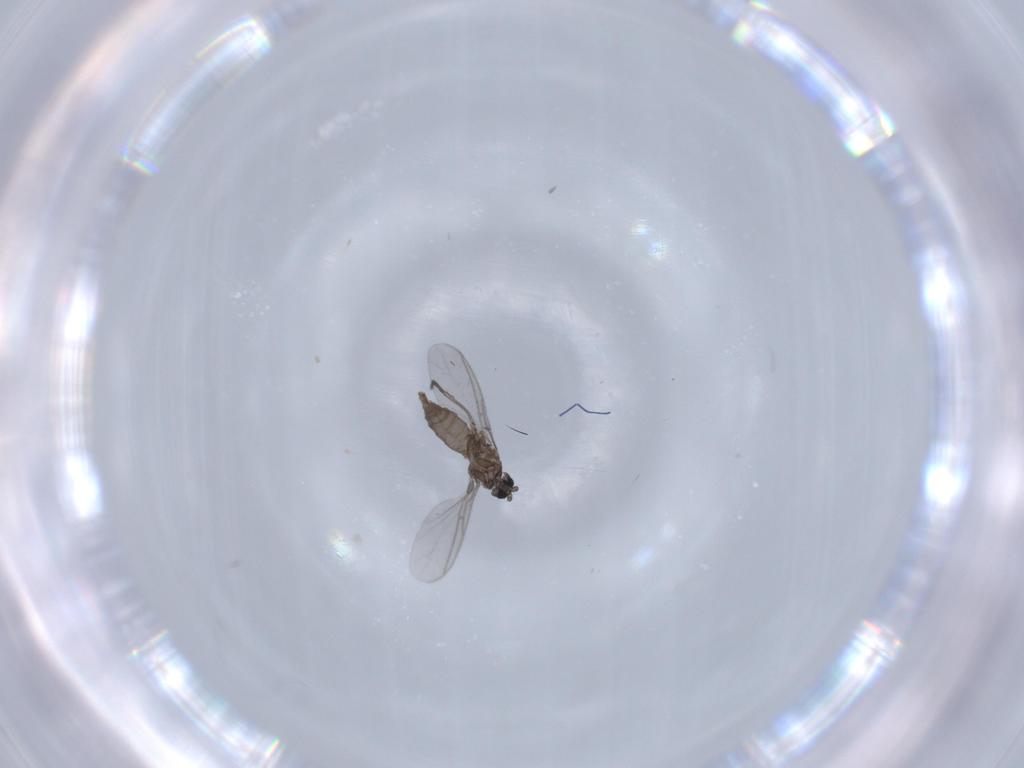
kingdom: Animalia
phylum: Arthropoda
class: Insecta
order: Diptera
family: Sciaridae
